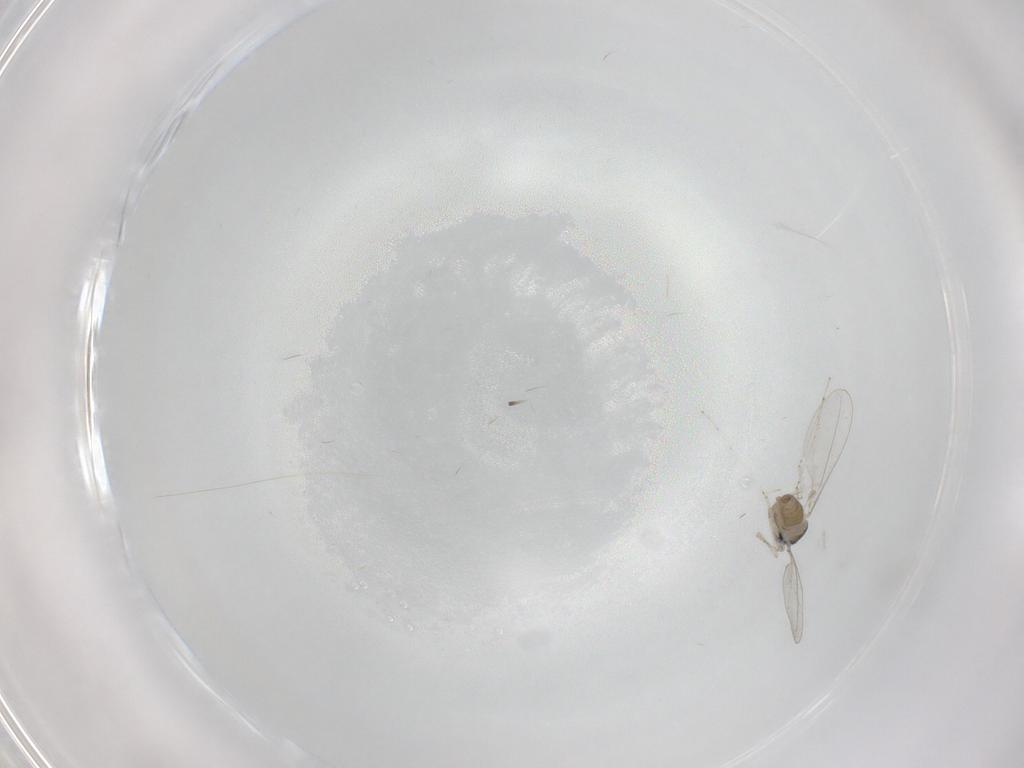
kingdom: Animalia
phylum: Arthropoda
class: Insecta
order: Diptera
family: Cecidomyiidae
